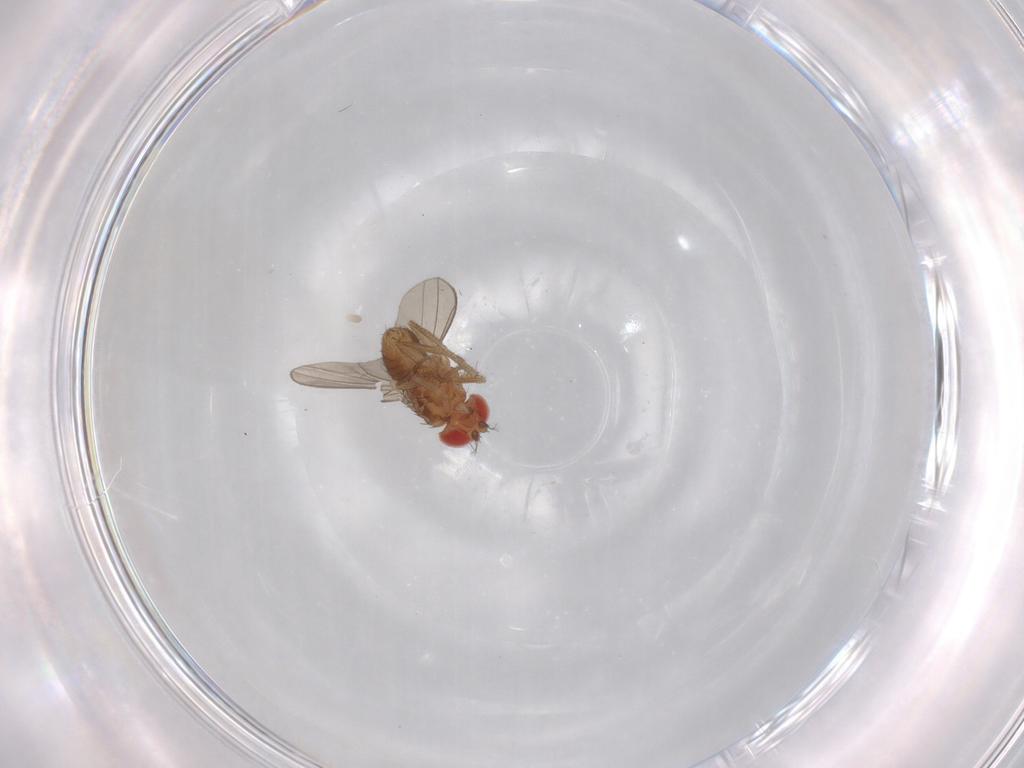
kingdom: Animalia
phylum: Arthropoda
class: Insecta
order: Diptera
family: Drosophilidae
